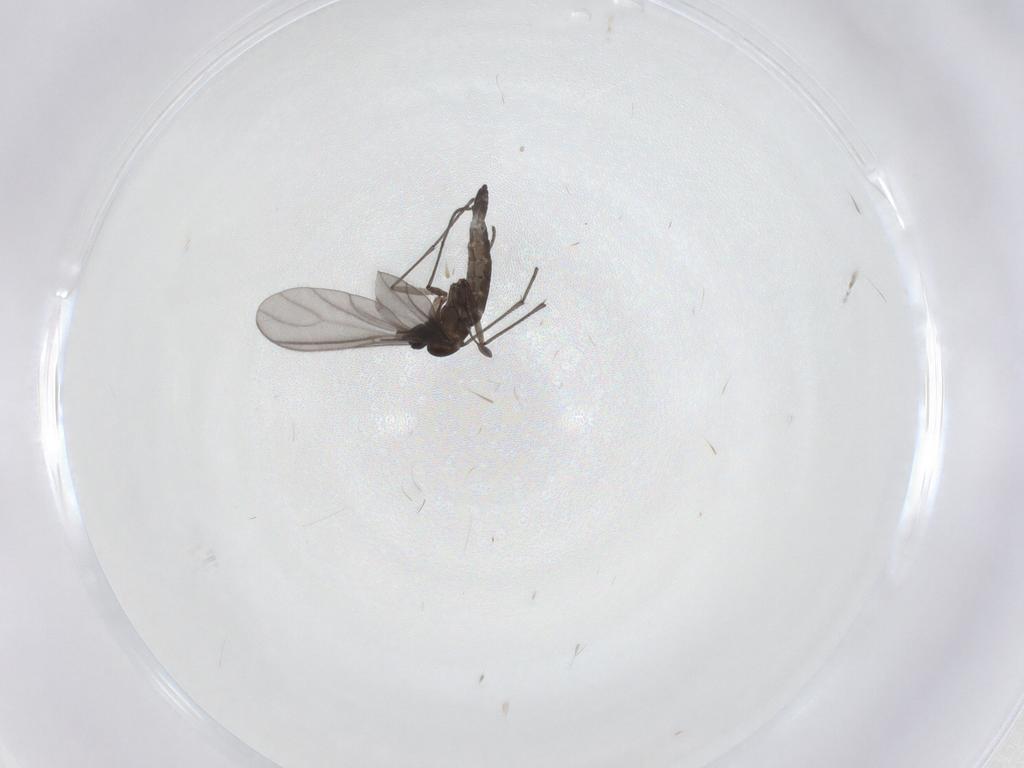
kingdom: Animalia
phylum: Arthropoda
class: Insecta
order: Diptera
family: Sciaridae
